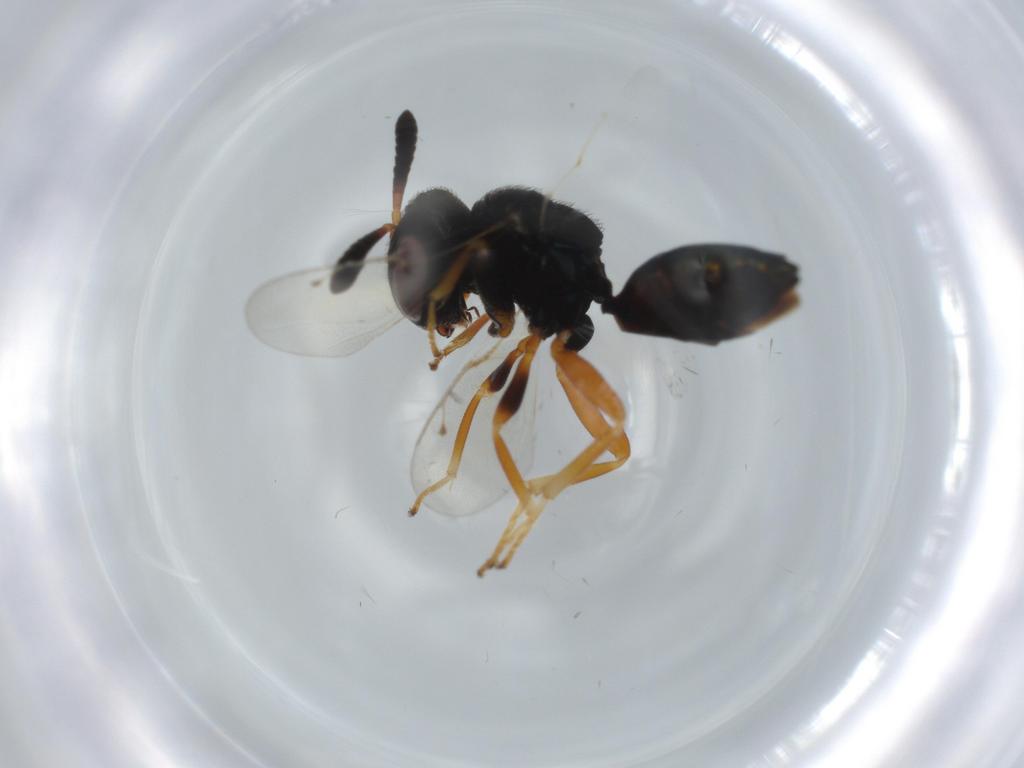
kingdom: Animalia
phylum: Arthropoda
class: Insecta
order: Hymenoptera
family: Pteromalidae
